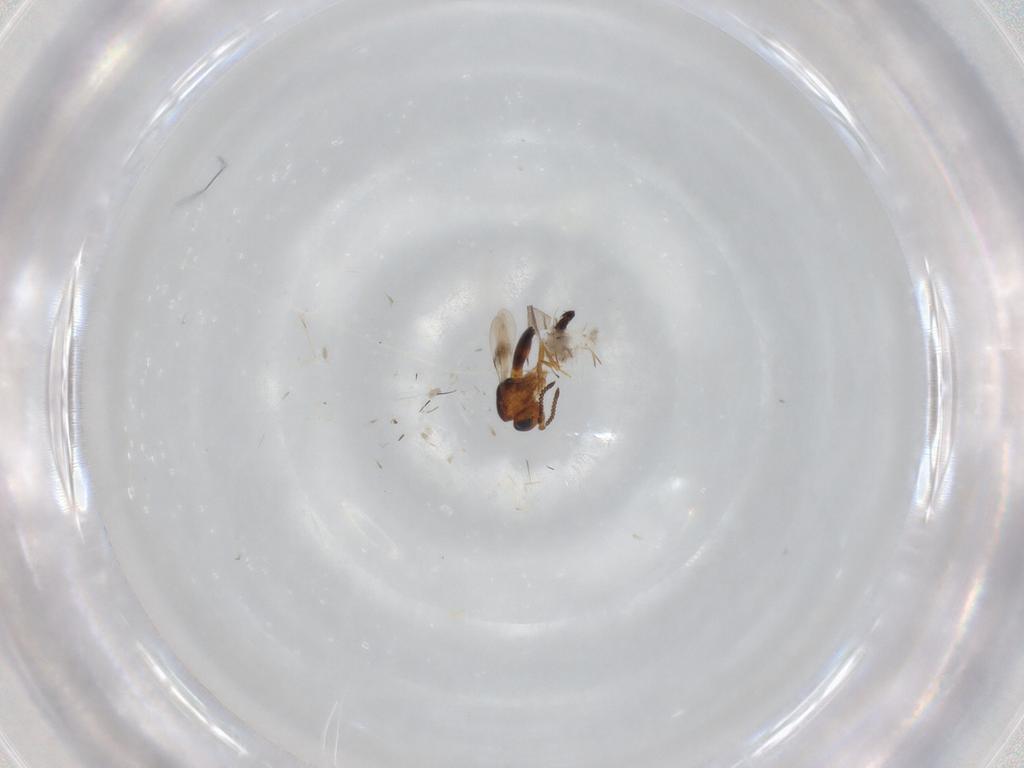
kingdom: Animalia
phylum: Arthropoda
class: Insecta
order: Hymenoptera
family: Scelionidae
